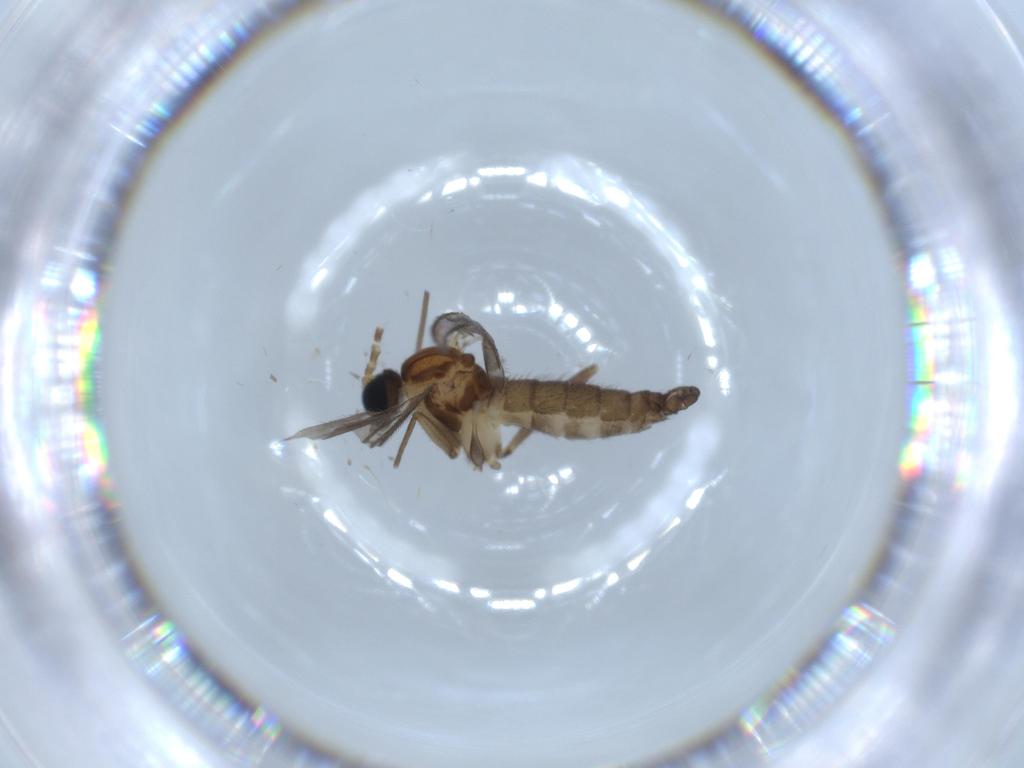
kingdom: Animalia
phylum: Arthropoda
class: Insecta
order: Diptera
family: Sciaridae
